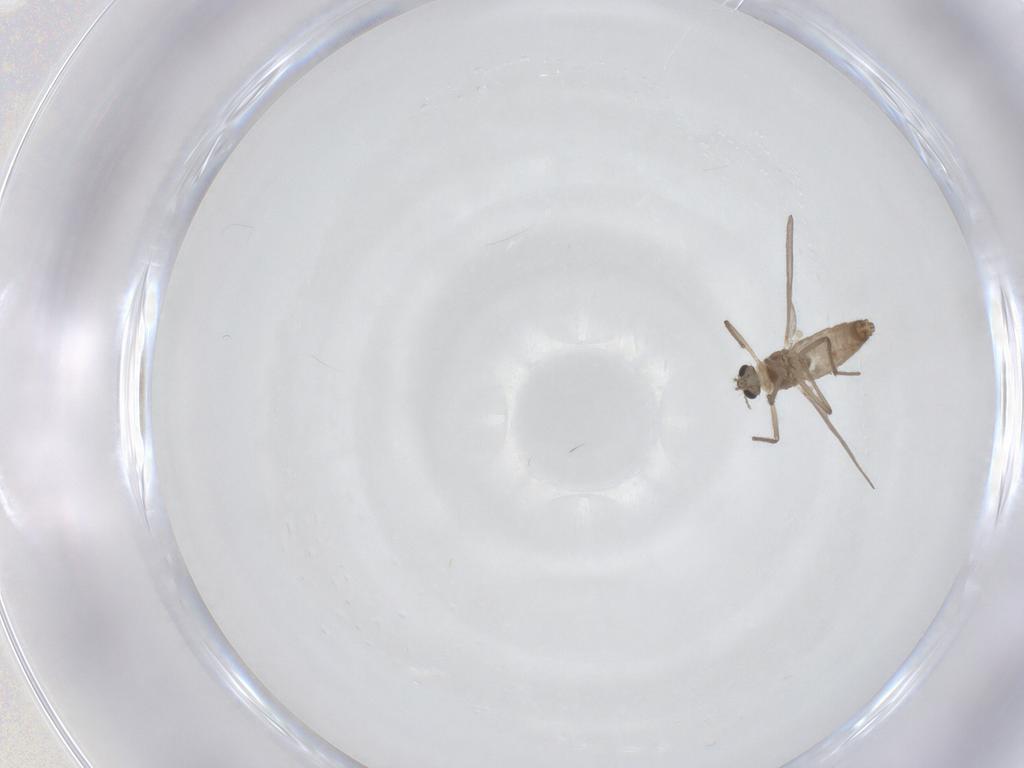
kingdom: Animalia
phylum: Arthropoda
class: Insecta
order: Diptera
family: Chironomidae
